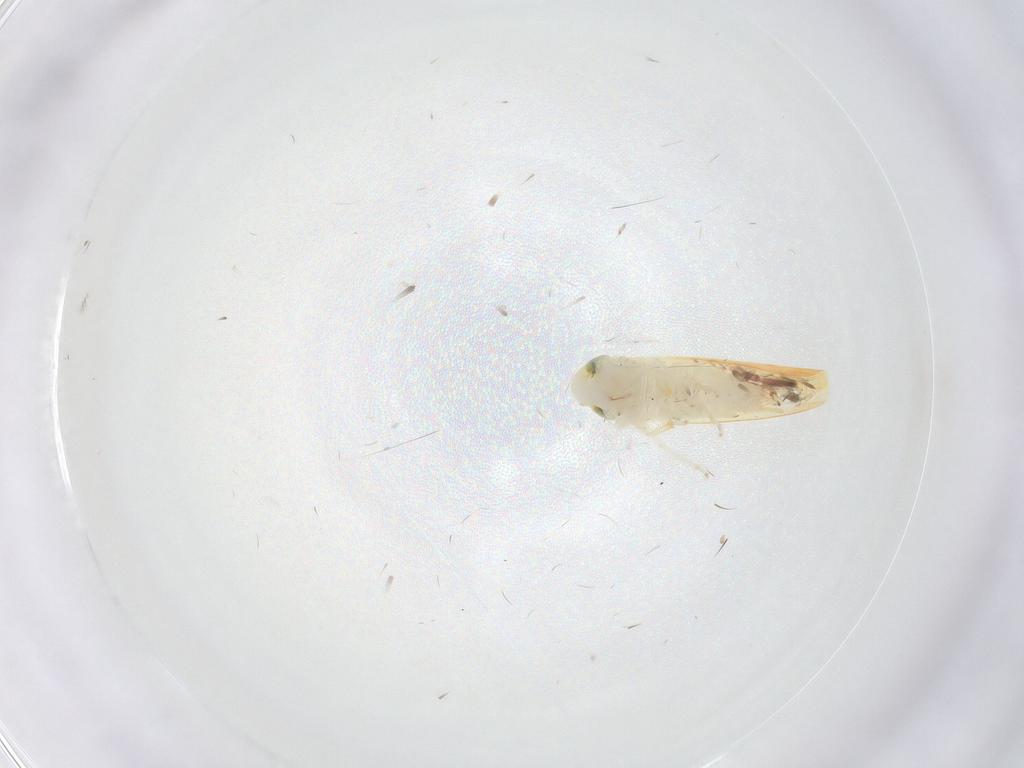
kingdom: Animalia
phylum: Arthropoda
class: Insecta
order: Hemiptera
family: Cicadellidae
